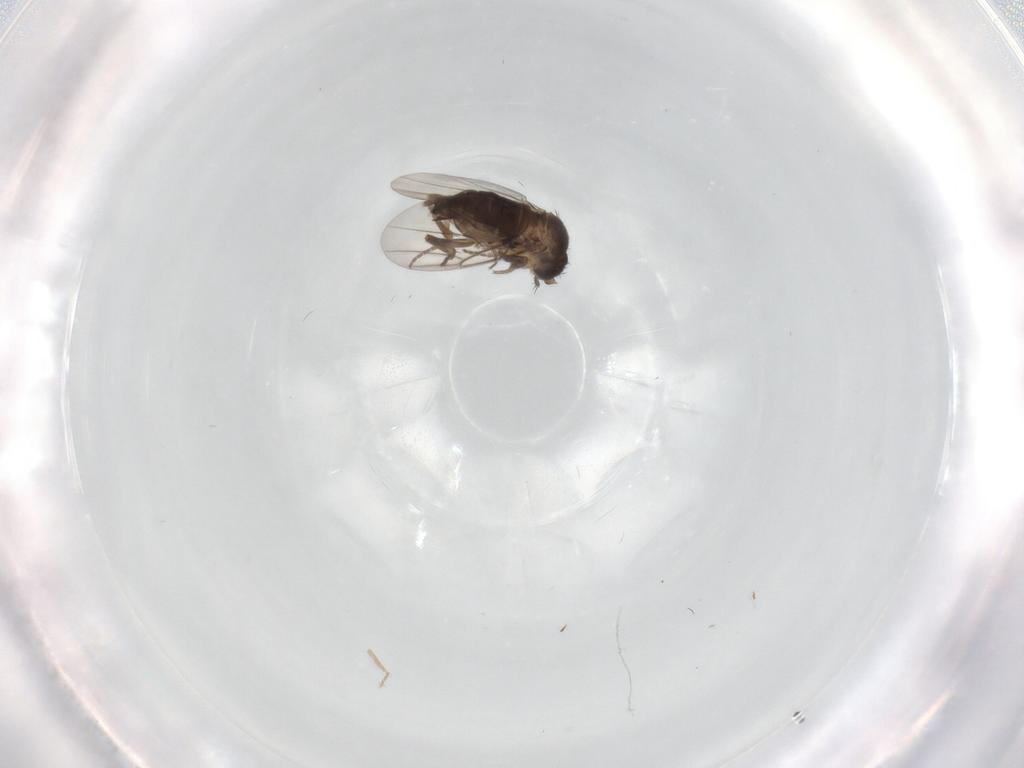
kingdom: Animalia
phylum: Arthropoda
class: Insecta
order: Diptera
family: Phoridae
